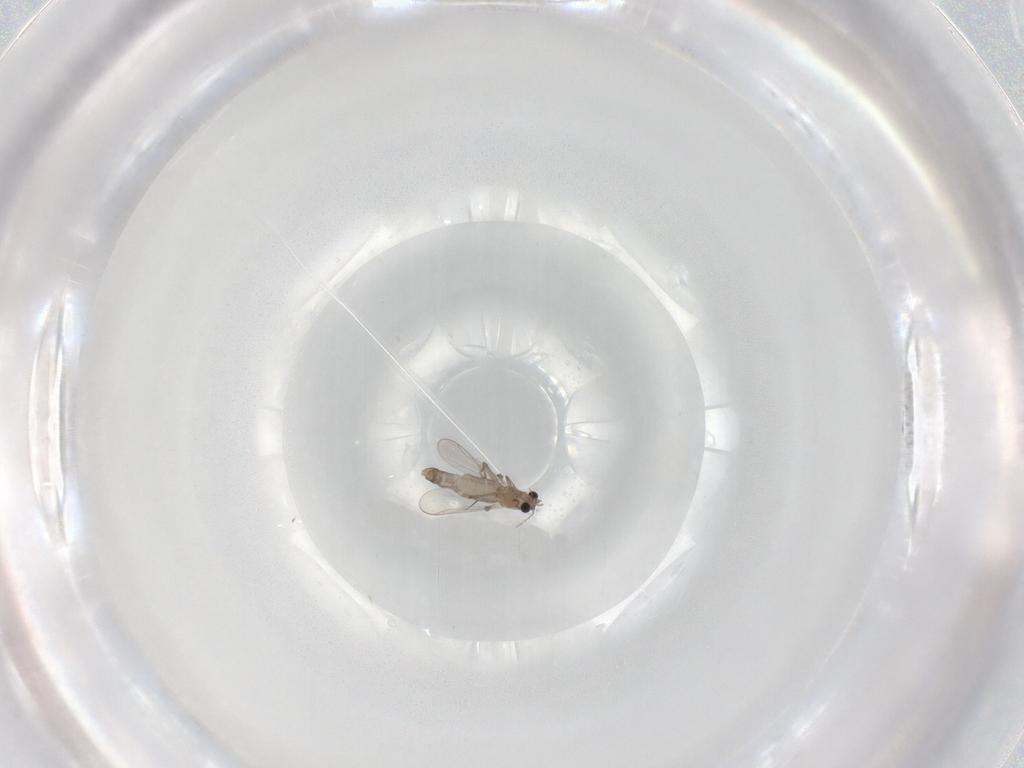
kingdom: Animalia
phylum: Arthropoda
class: Insecta
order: Diptera
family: Chironomidae
